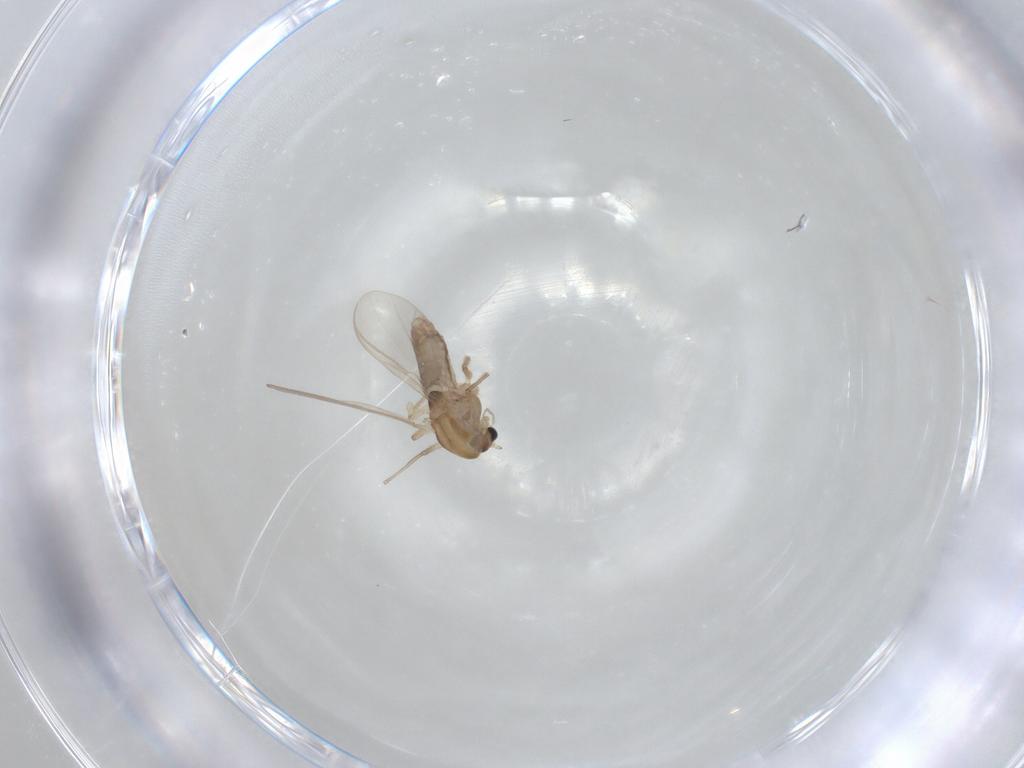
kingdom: Animalia
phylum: Arthropoda
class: Insecta
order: Diptera
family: Chironomidae
